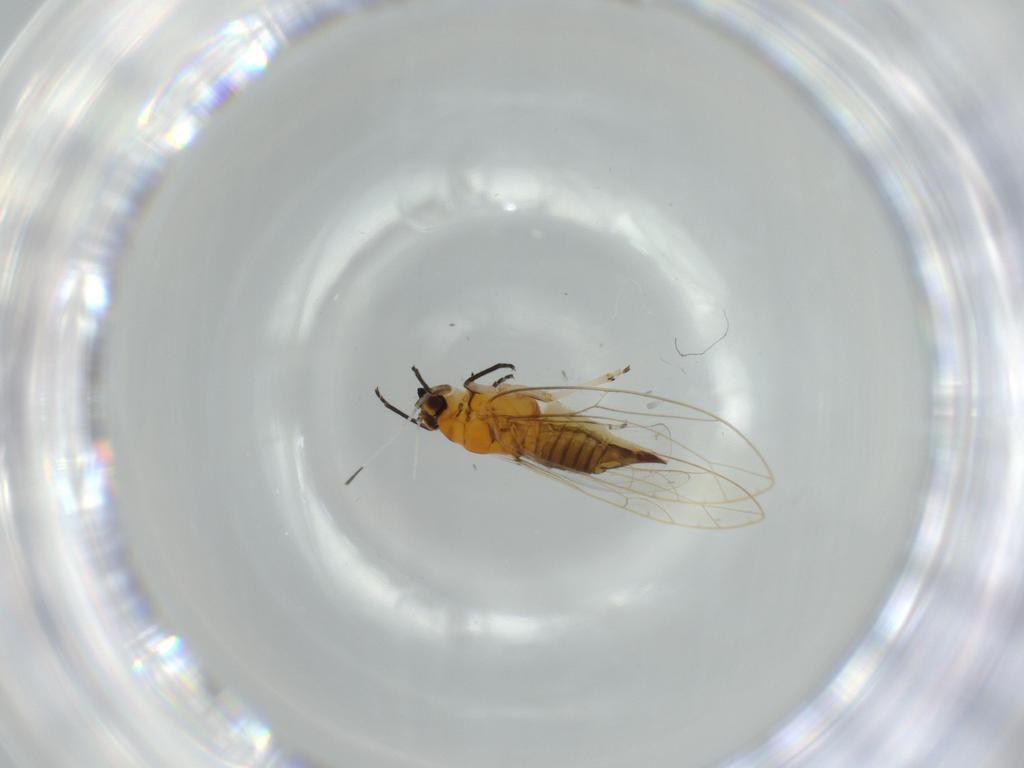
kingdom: Animalia
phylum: Arthropoda
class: Insecta
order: Hemiptera
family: Triozidae
